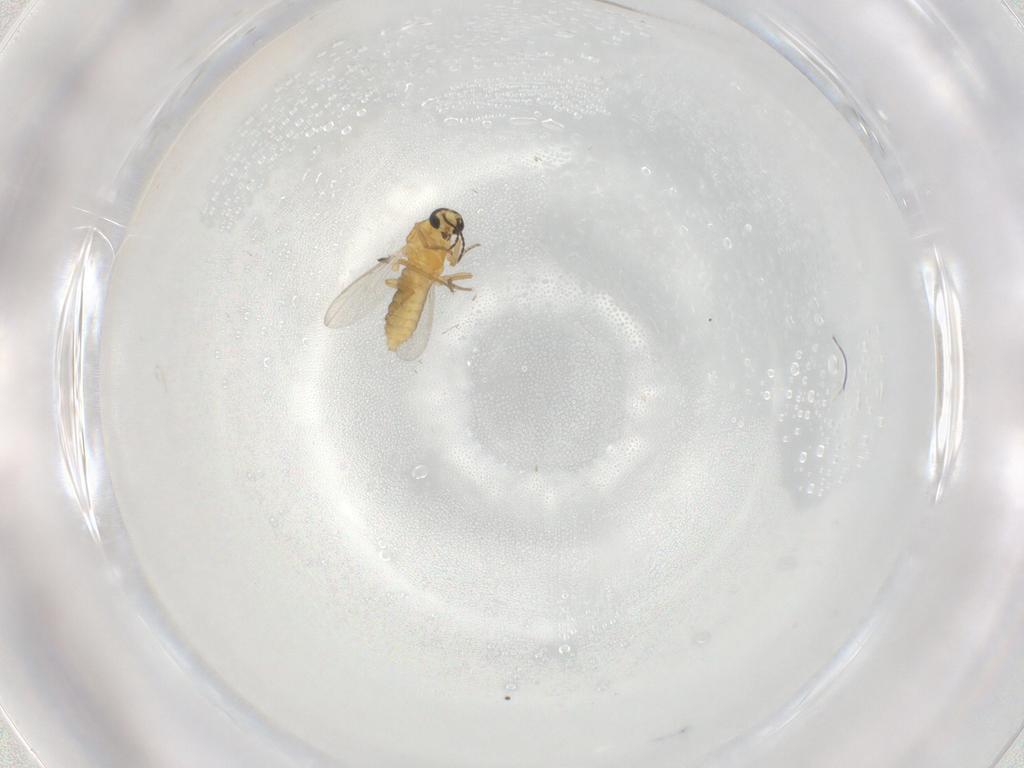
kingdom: Animalia
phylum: Arthropoda
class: Insecta
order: Diptera
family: Ceratopogonidae
